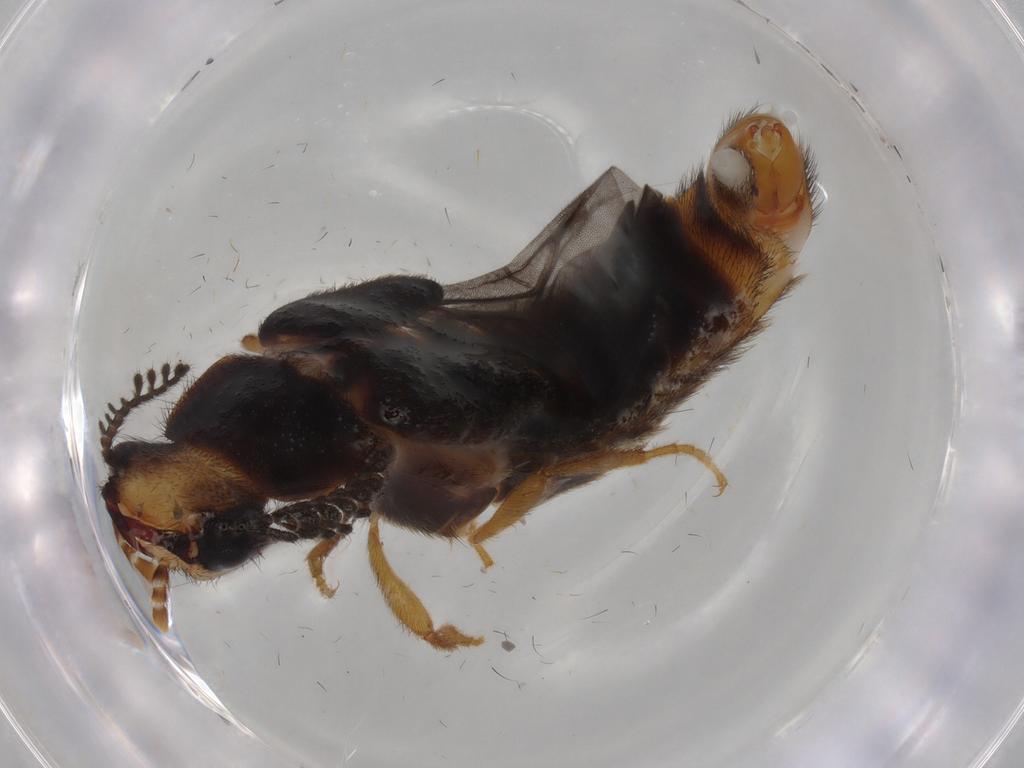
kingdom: Animalia
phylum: Arthropoda
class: Insecta
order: Coleoptera
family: Phengodidae
